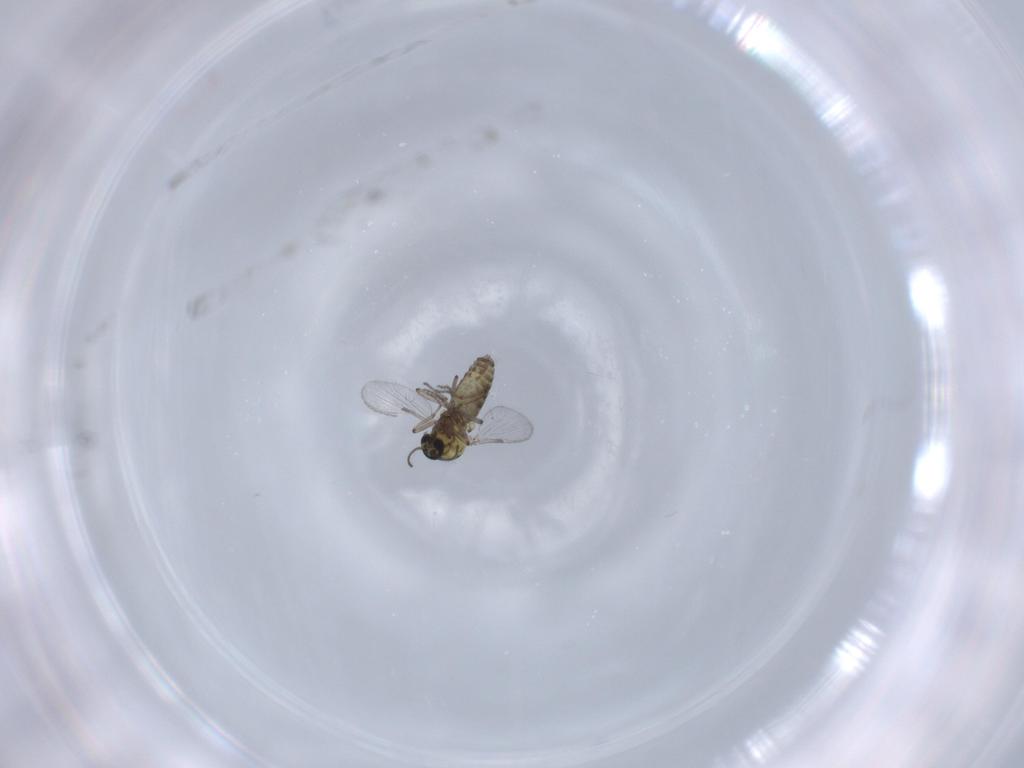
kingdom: Animalia
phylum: Arthropoda
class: Insecta
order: Diptera
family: Ceratopogonidae
